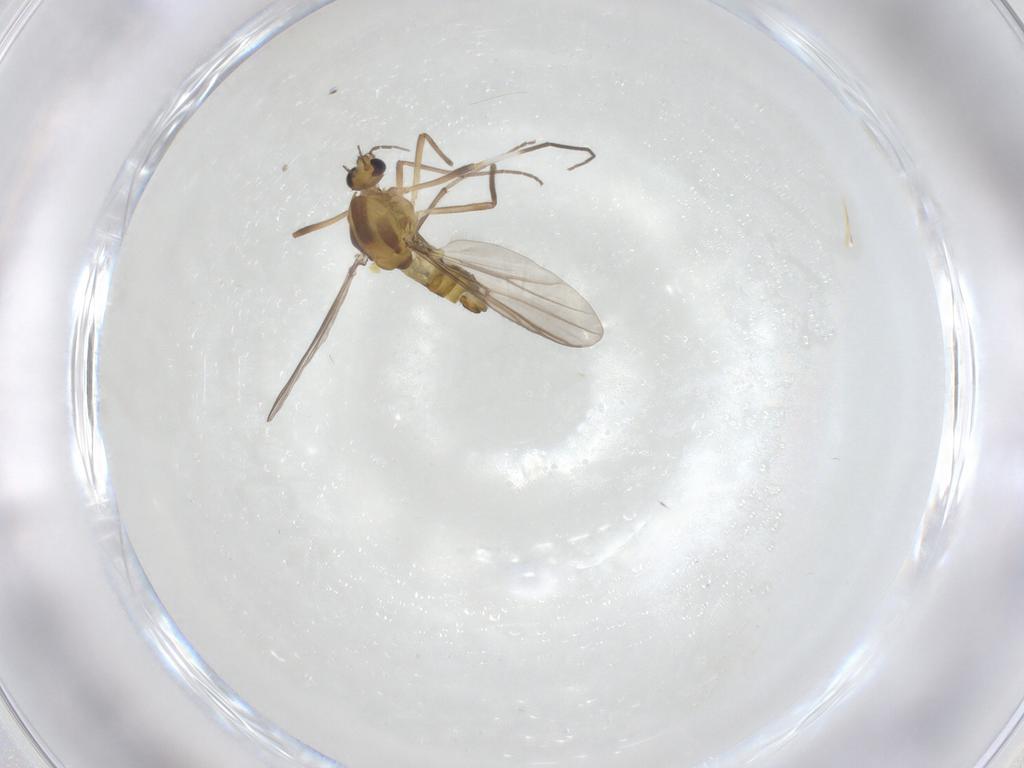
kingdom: Animalia
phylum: Arthropoda
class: Insecta
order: Diptera
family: Chironomidae
